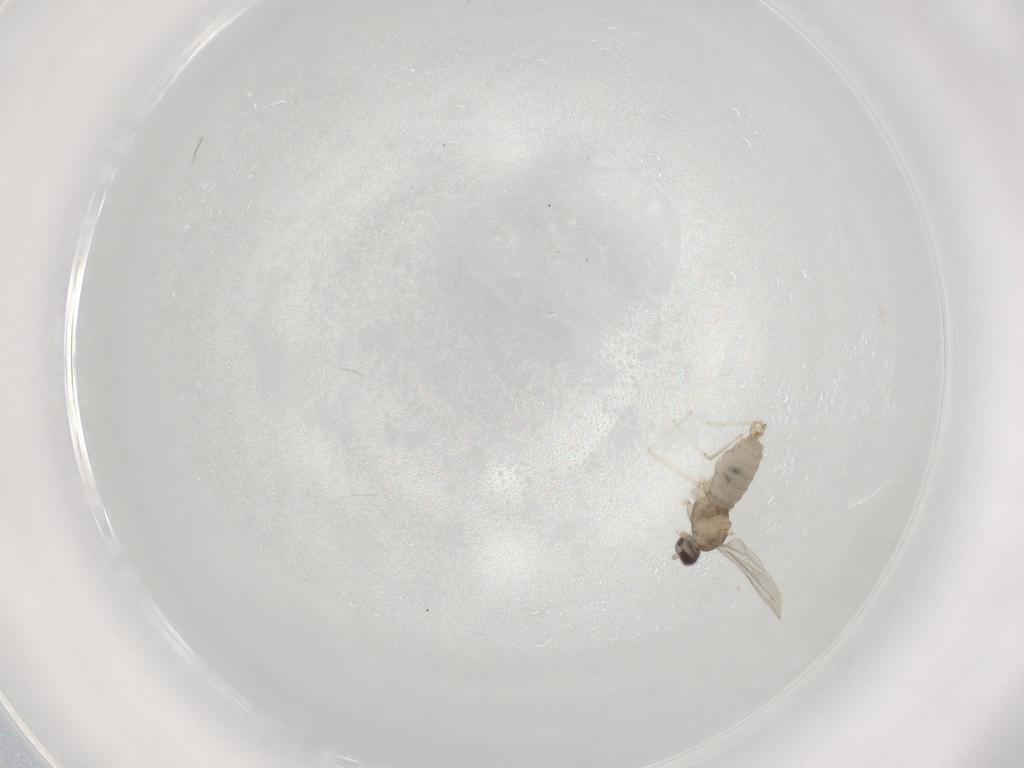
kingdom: Animalia
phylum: Arthropoda
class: Insecta
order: Diptera
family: Cecidomyiidae
